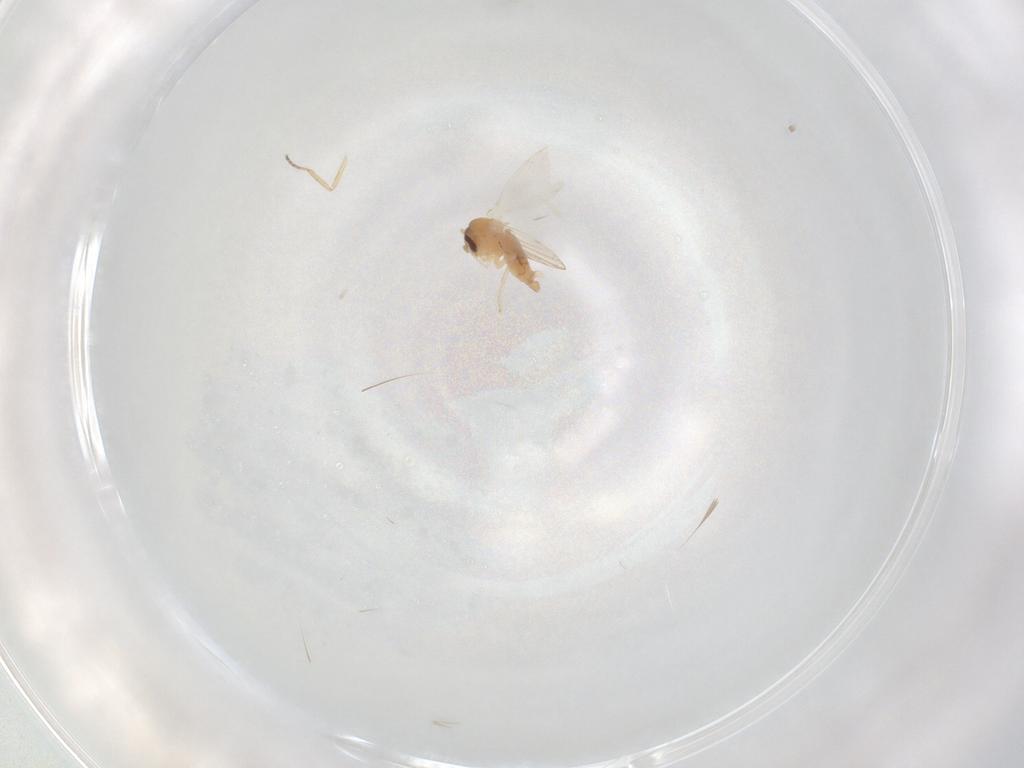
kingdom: Animalia
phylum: Arthropoda
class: Insecta
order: Diptera
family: Psychodidae
